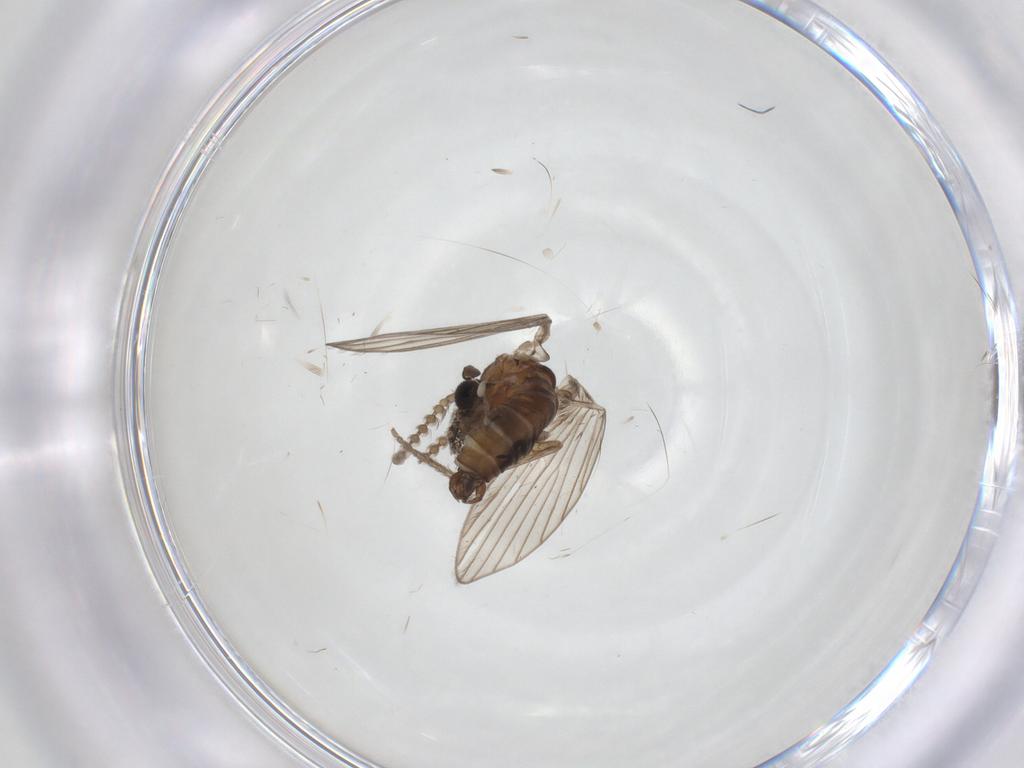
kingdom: Animalia
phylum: Arthropoda
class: Insecta
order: Diptera
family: Psychodidae
